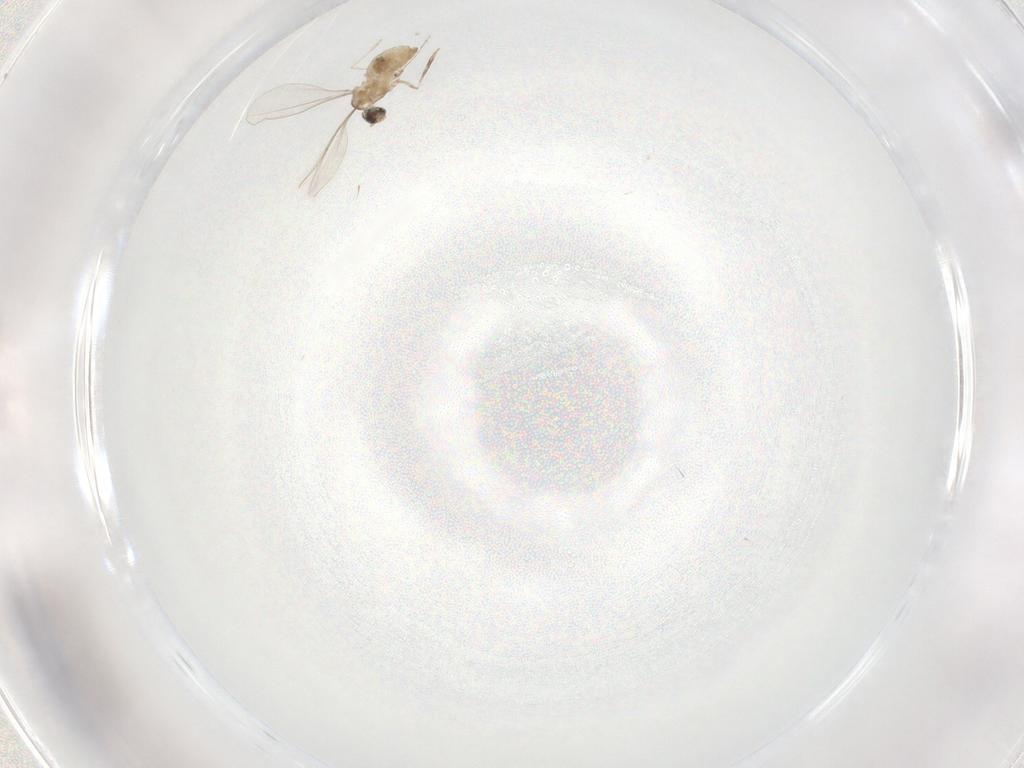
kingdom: Animalia
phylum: Arthropoda
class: Insecta
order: Diptera
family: Cecidomyiidae
